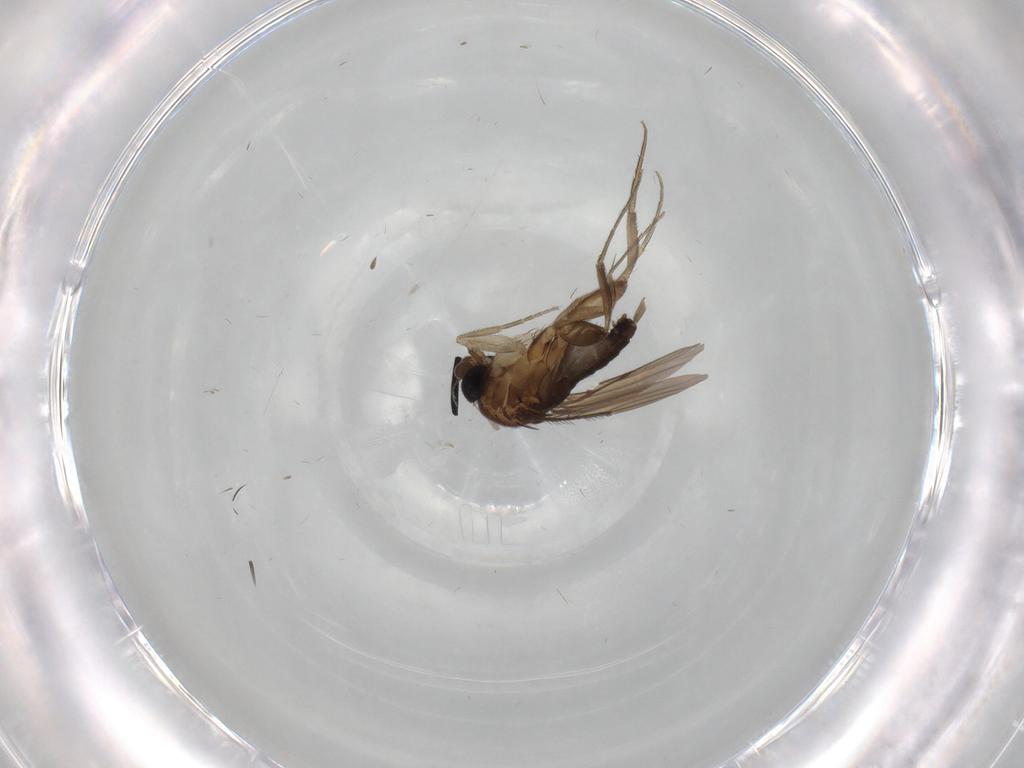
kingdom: Animalia
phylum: Arthropoda
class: Insecta
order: Diptera
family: Phoridae
